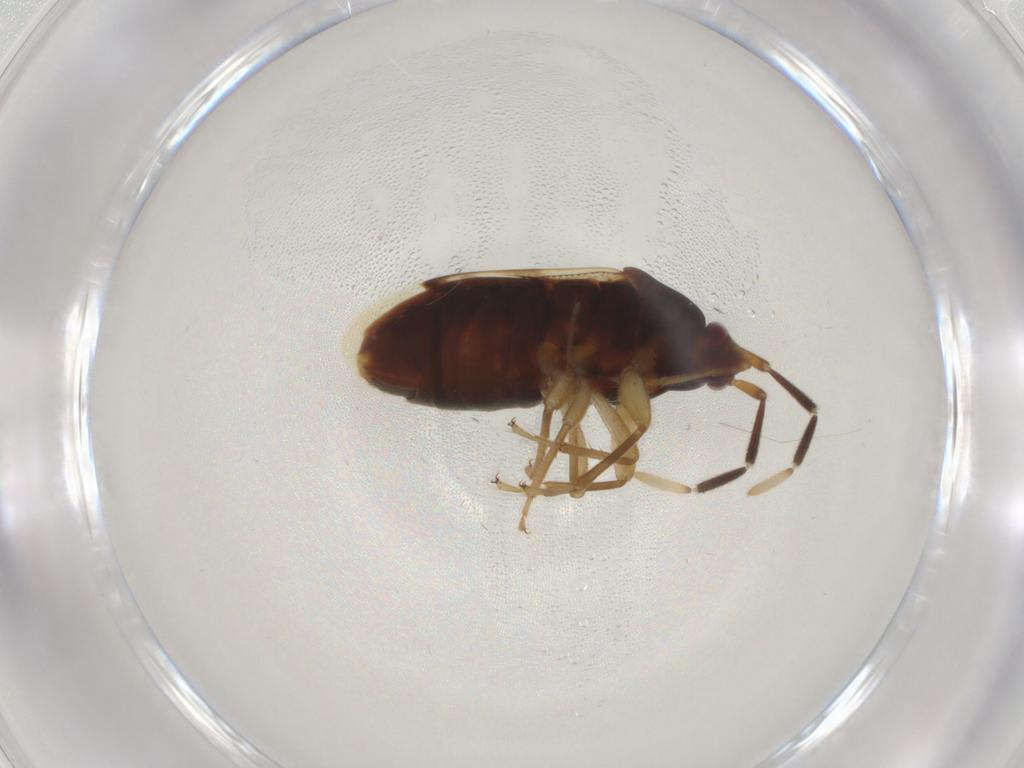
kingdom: Animalia
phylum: Arthropoda
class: Insecta
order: Hemiptera
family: Rhyparochromidae
